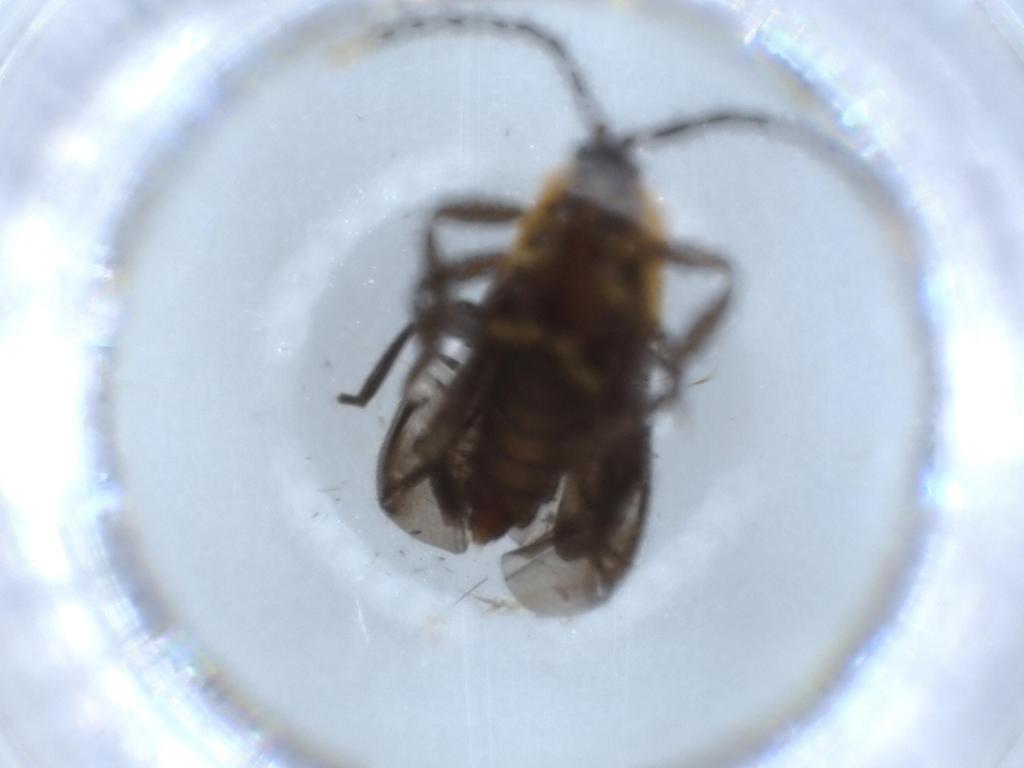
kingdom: Animalia
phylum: Arthropoda
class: Insecta
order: Coleoptera
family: Lycidae
